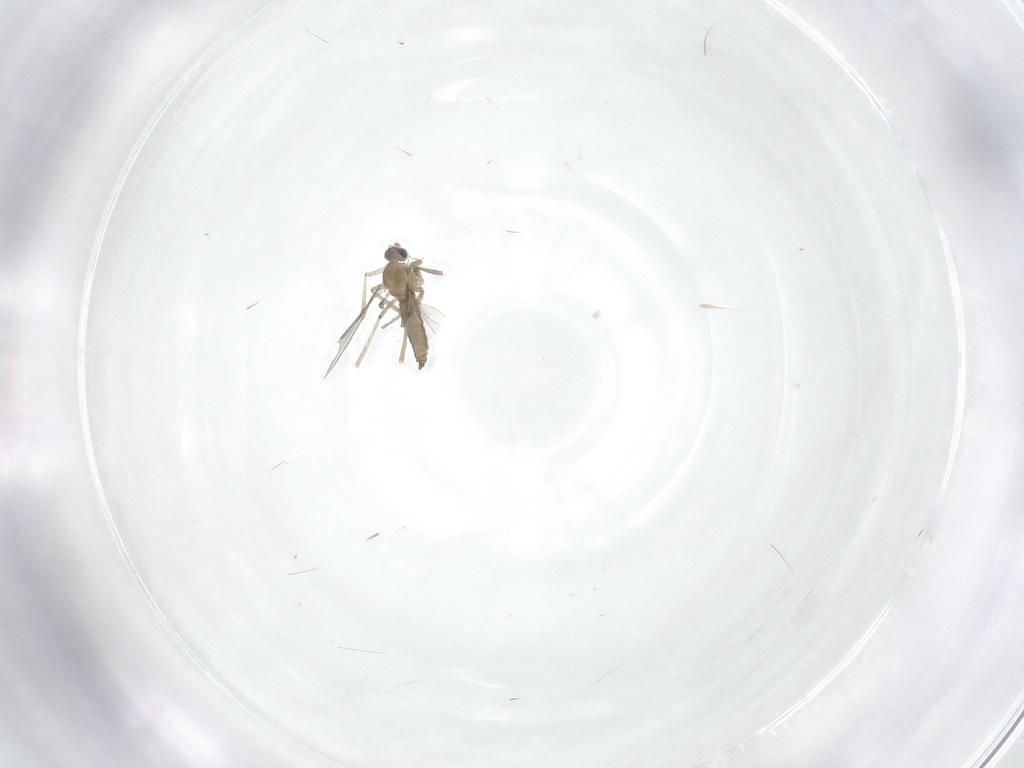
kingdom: Animalia
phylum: Arthropoda
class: Insecta
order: Diptera
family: Cecidomyiidae
